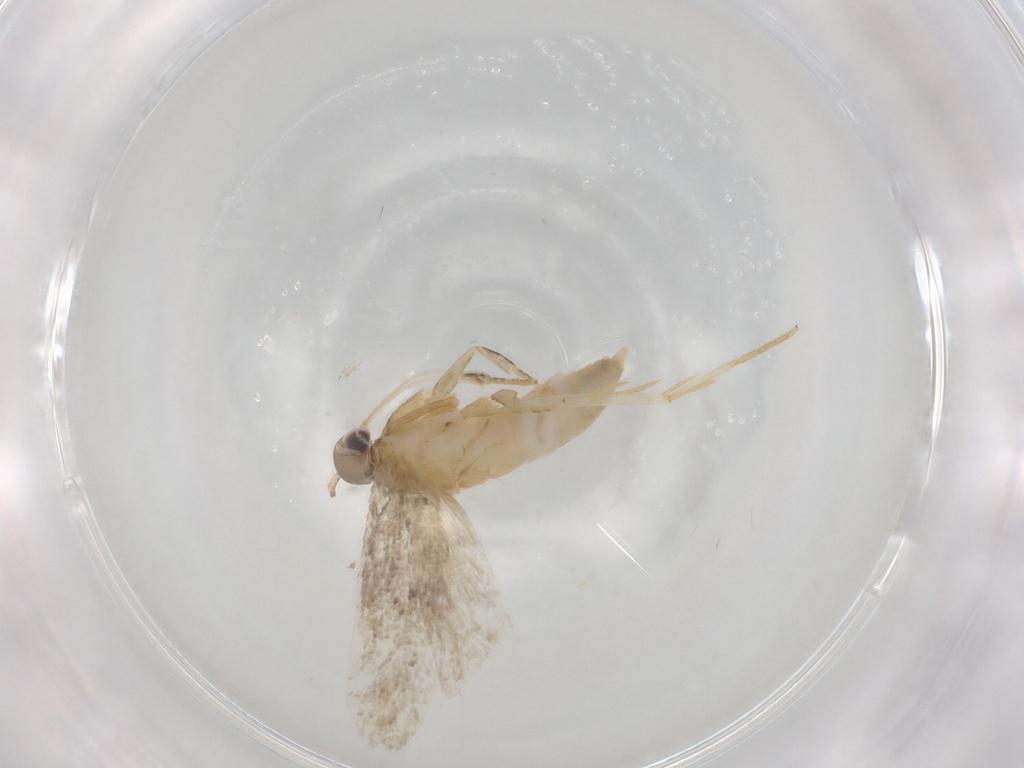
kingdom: Animalia
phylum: Arthropoda
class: Insecta
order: Lepidoptera
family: Autostichidae
